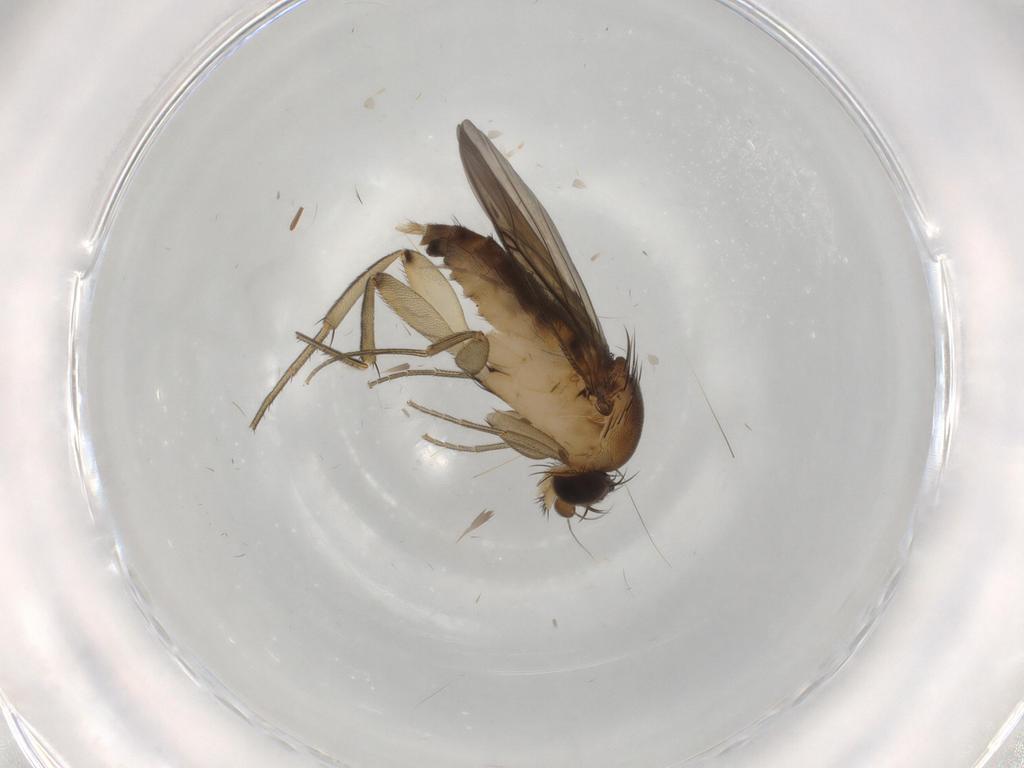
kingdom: Animalia
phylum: Arthropoda
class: Insecta
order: Diptera
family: Phoridae
